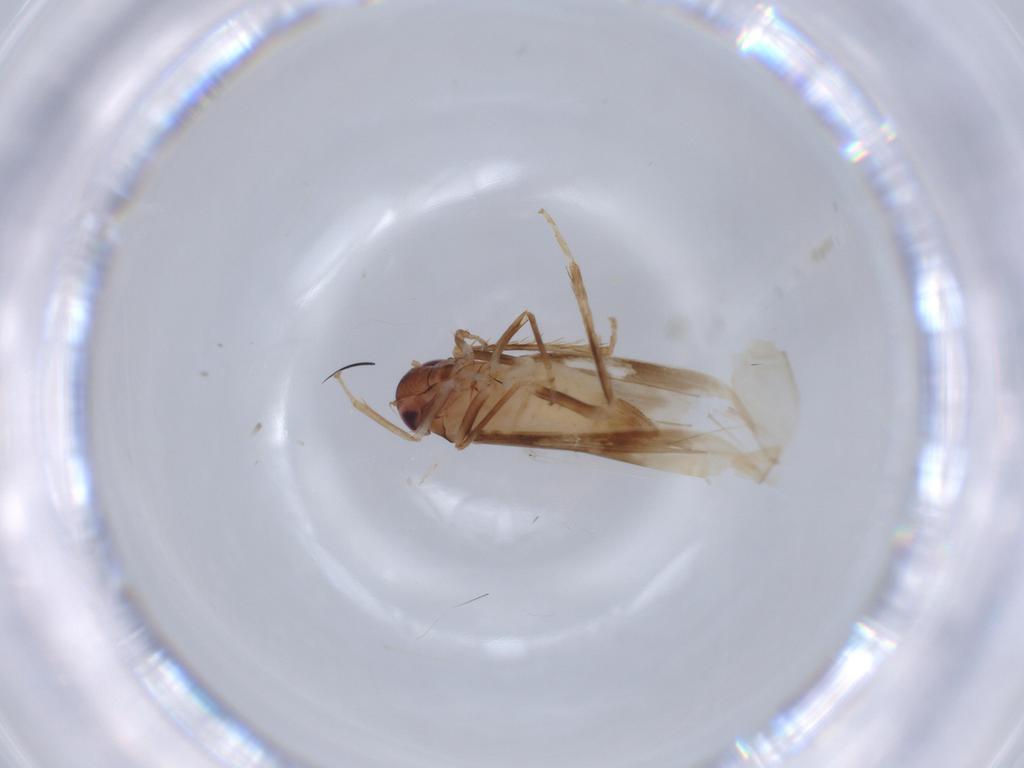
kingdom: Animalia
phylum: Arthropoda
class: Insecta
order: Hemiptera
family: Cicadellidae
